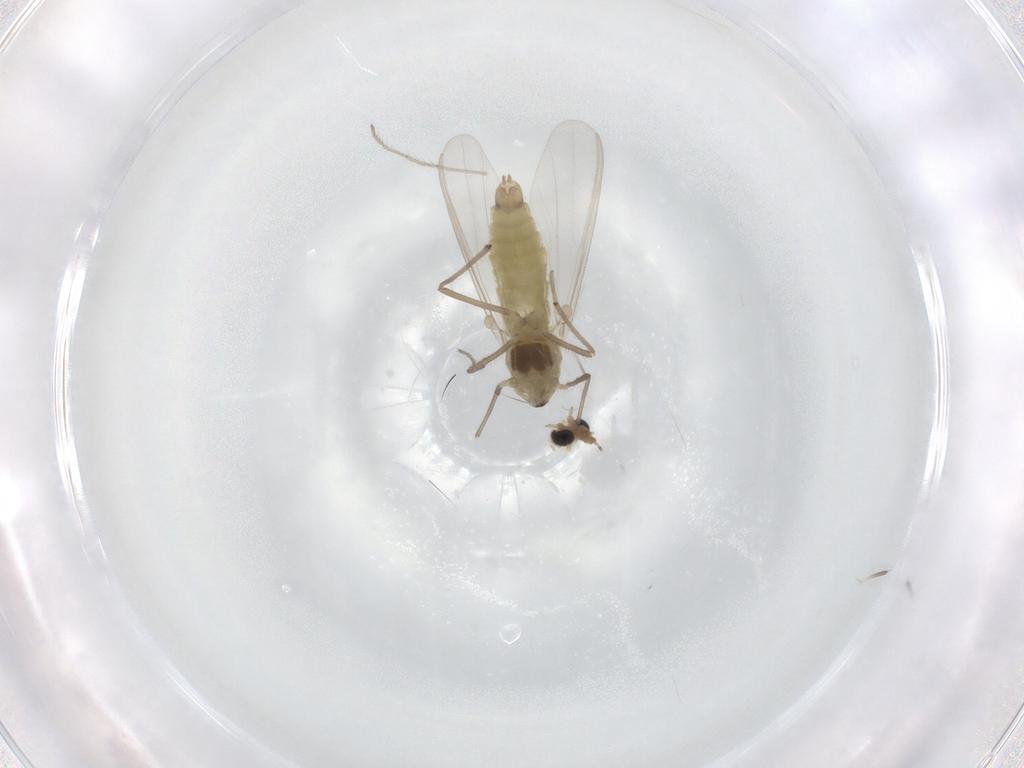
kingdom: Animalia
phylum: Arthropoda
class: Insecta
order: Diptera
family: Chironomidae
